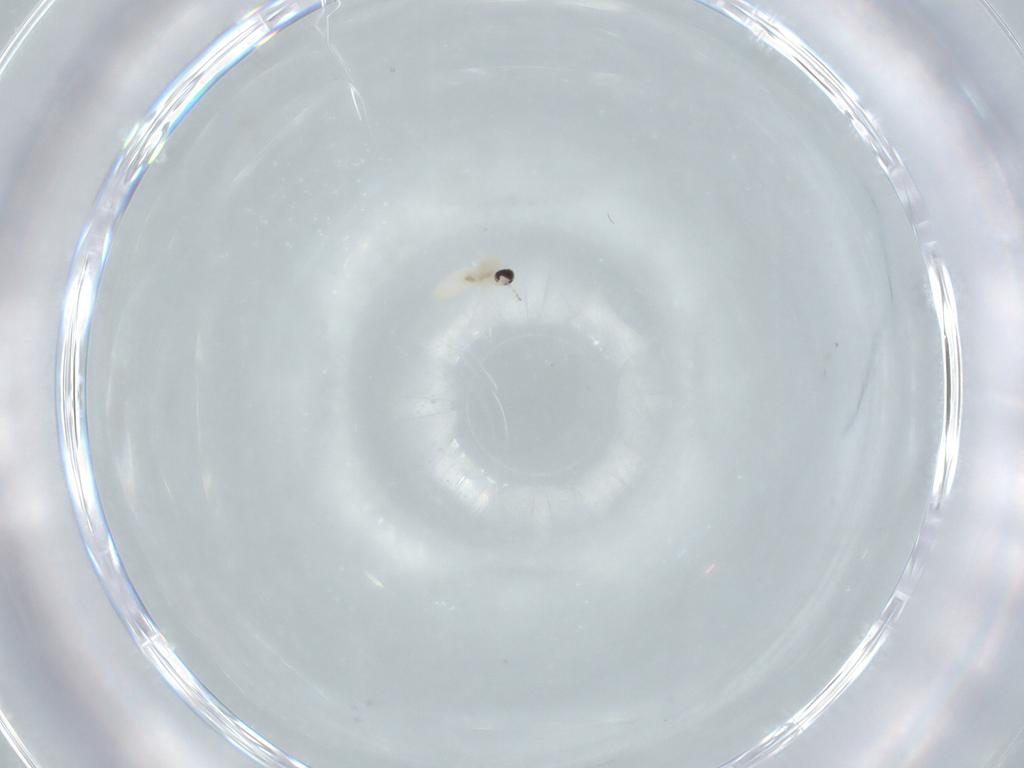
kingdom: Animalia
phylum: Arthropoda
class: Insecta
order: Diptera
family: Cecidomyiidae
